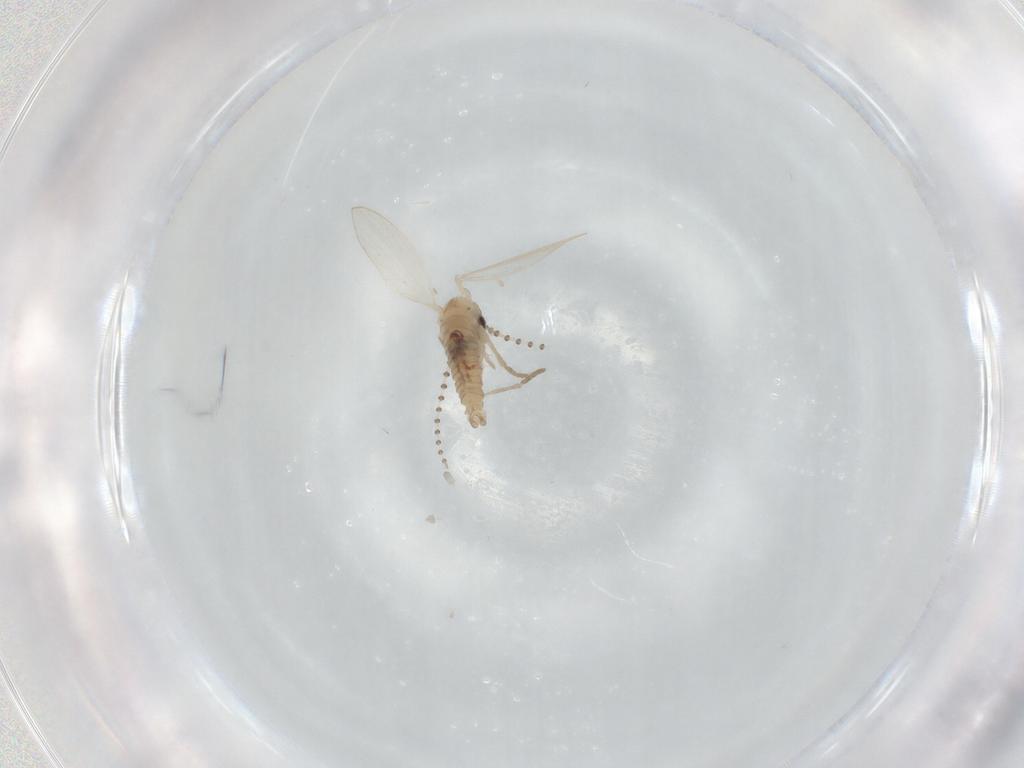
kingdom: Animalia
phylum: Arthropoda
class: Insecta
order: Diptera
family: Psychodidae
